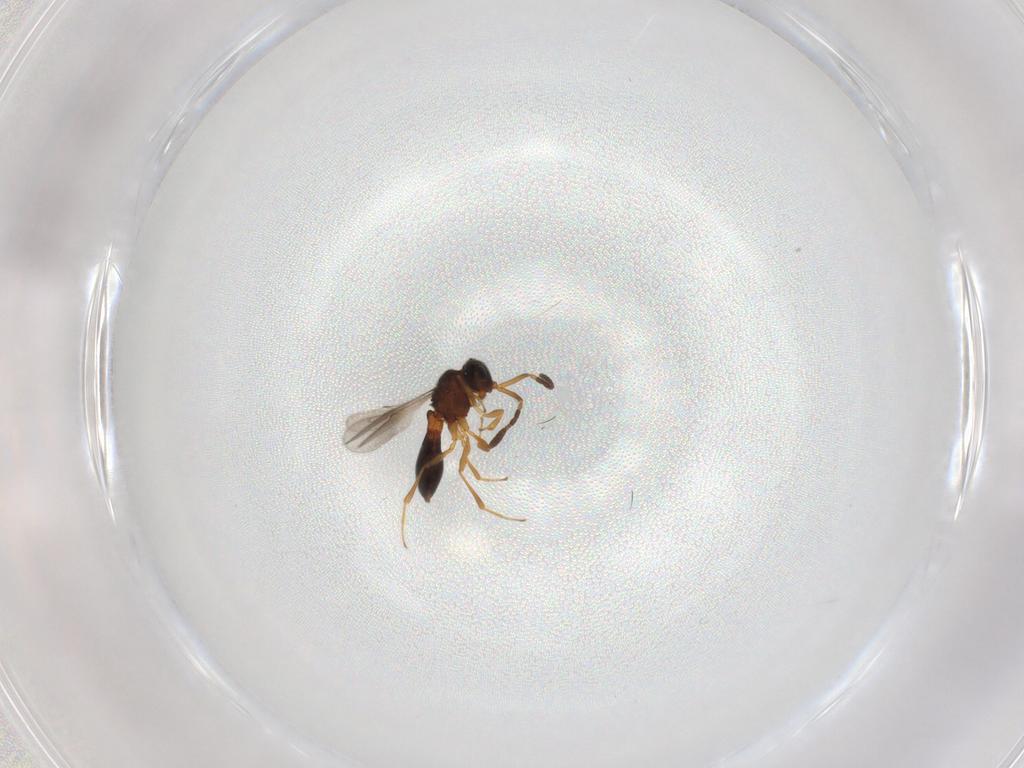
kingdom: Animalia
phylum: Arthropoda
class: Insecta
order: Hymenoptera
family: Scelionidae
